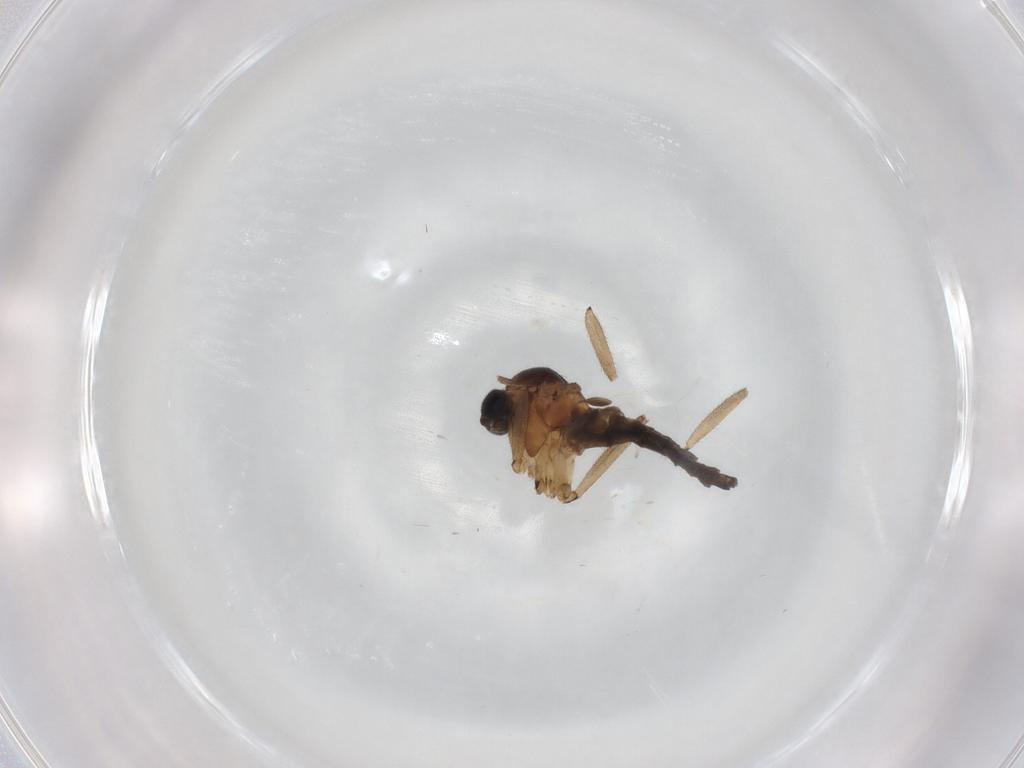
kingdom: Animalia
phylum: Arthropoda
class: Insecta
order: Diptera
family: Sciaridae
